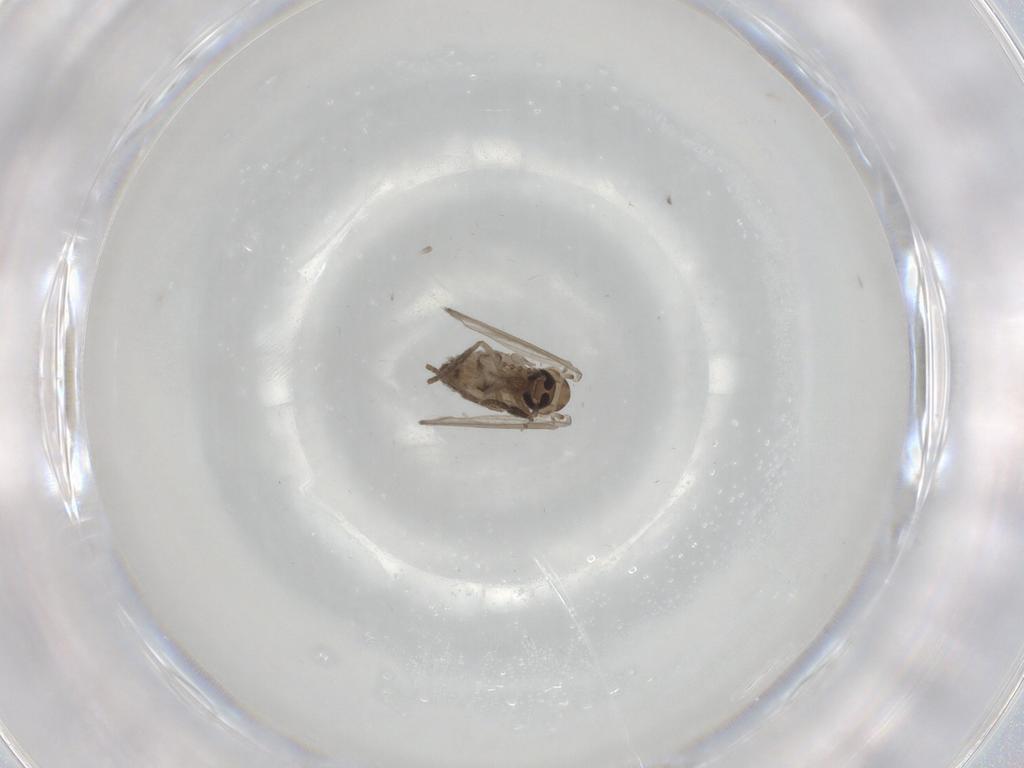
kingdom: Animalia
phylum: Arthropoda
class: Insecta
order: Diptera
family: Psychodidae
